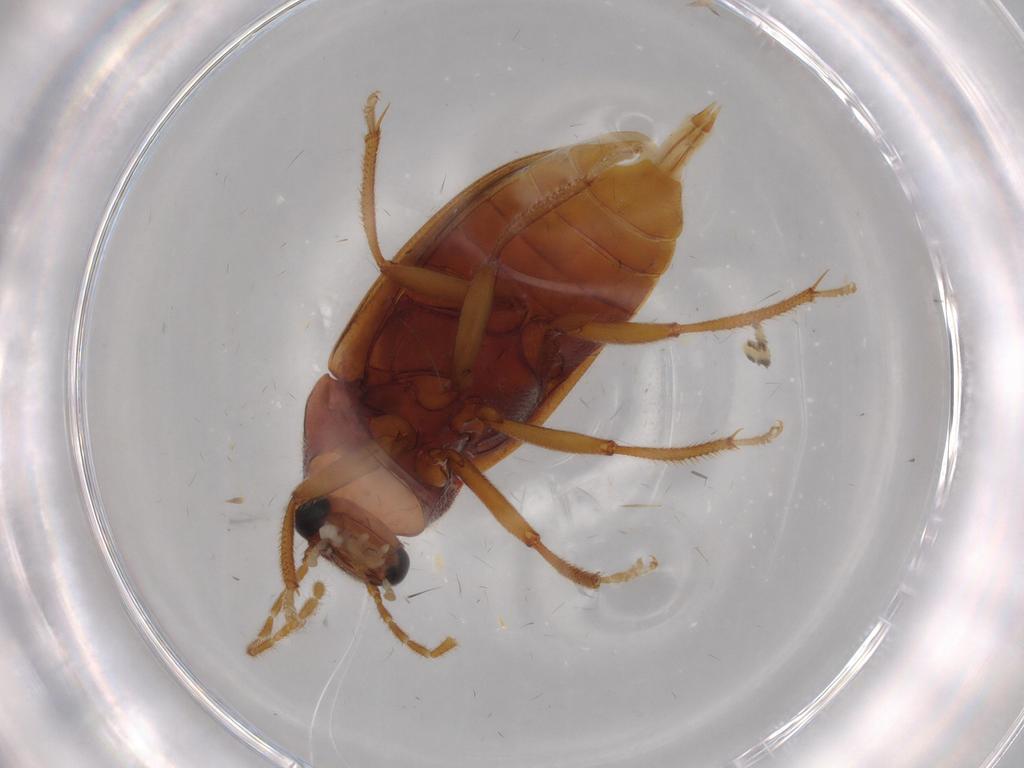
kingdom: Animalia
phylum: Arthropoda
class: Insecta
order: Coleoptera
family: Ptilodactylidae
